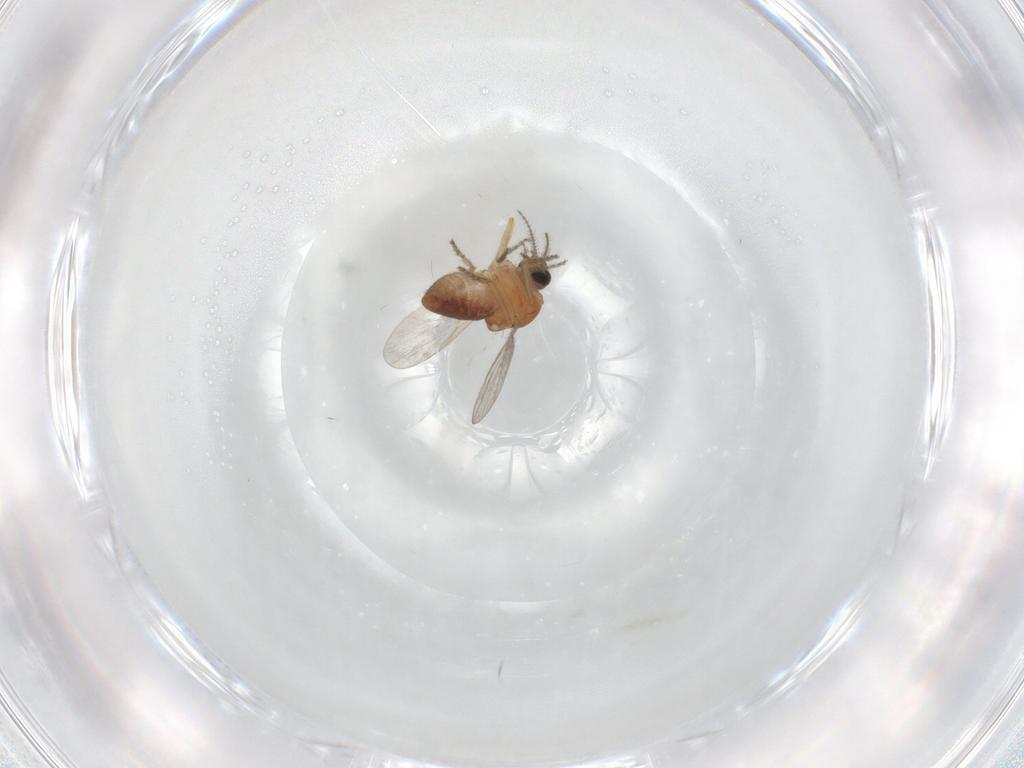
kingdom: Animalia
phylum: Arthropoda
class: Insecta
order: Diptera
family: Ceratopogonidae
